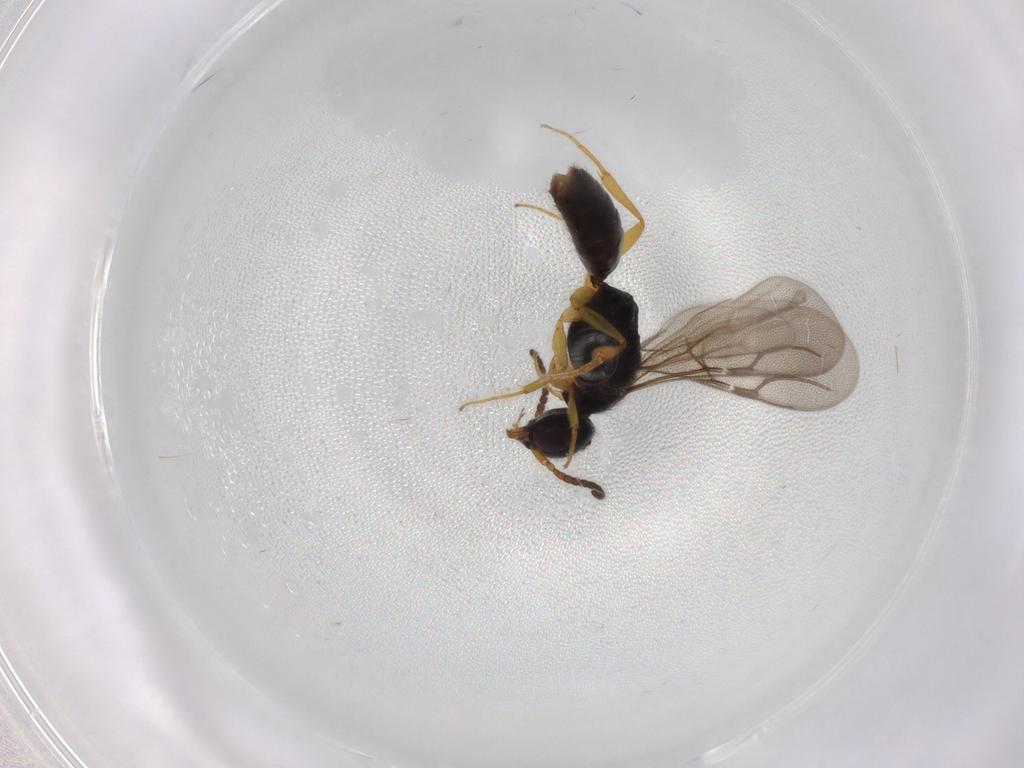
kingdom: Animalia
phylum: Arthropoda
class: Insecta
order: Hymenoptera
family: Bethylidae
